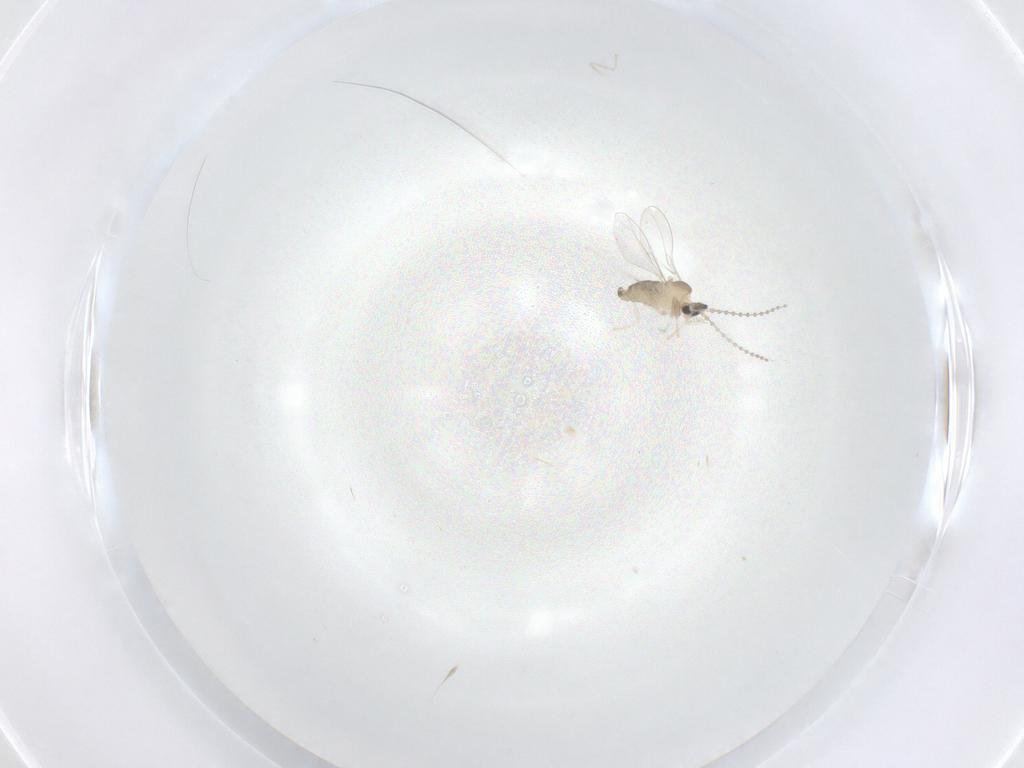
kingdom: Animalia
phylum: Arthropoda
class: Insecta
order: Diptera
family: Cecidomyiidae
